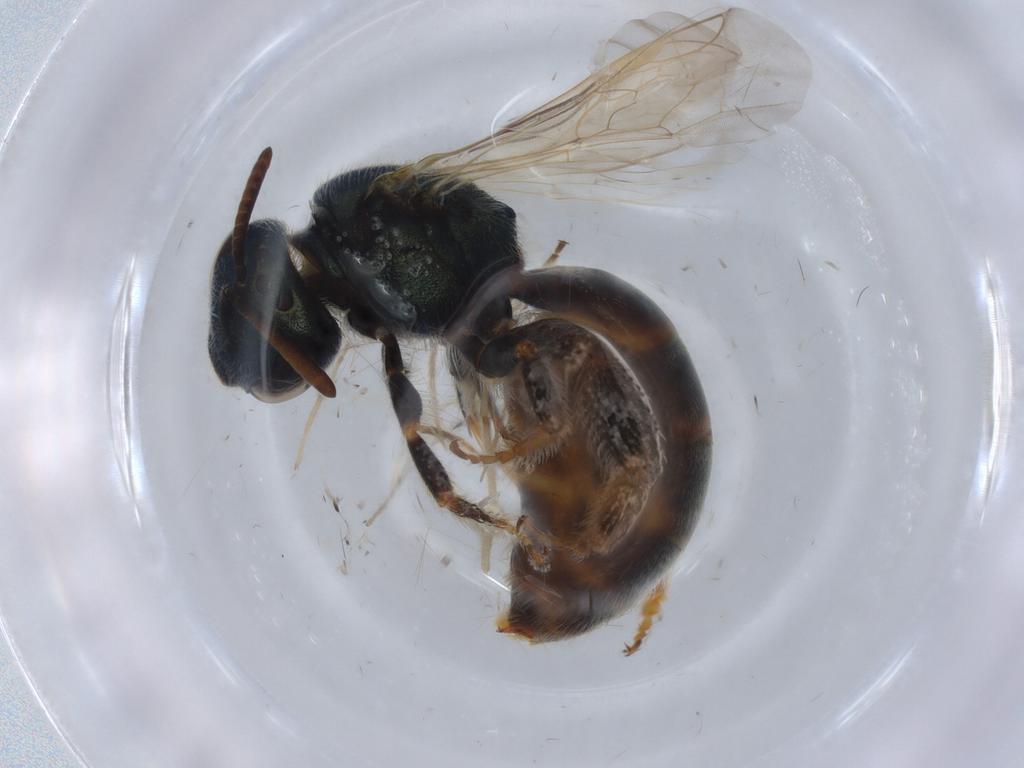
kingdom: Animalia
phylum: Arthropoda
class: Insecta
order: Hymenoptera
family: Halictidae
